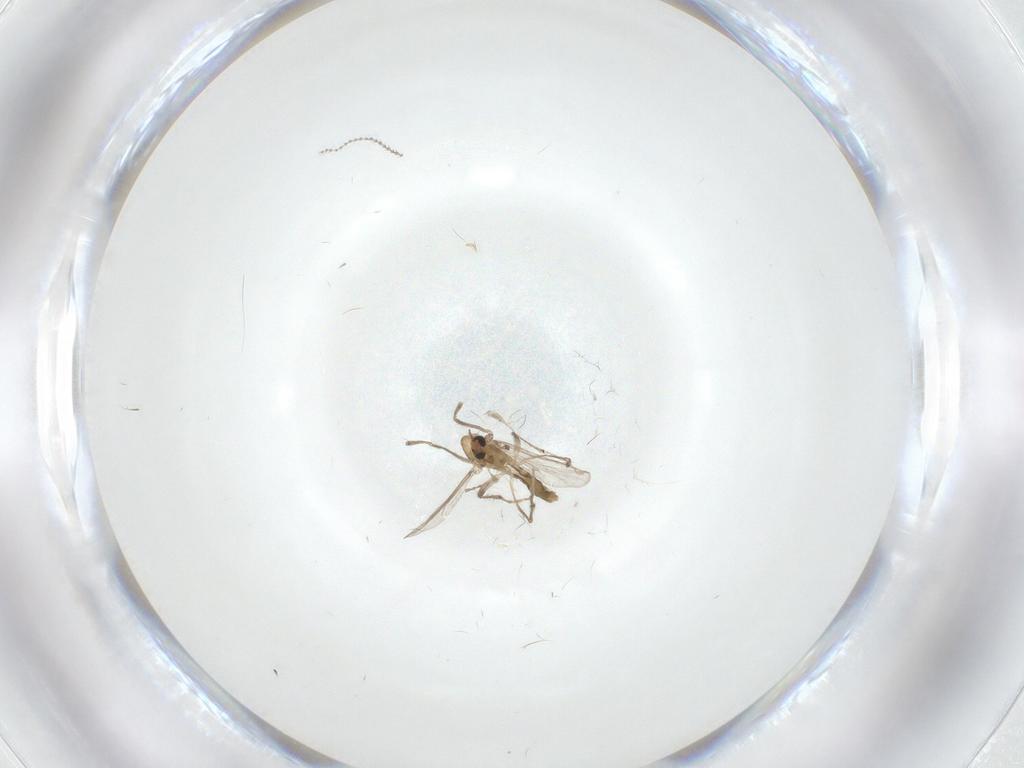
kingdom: Animalia
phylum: Arthropoda
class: Insecta
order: Diptera
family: Chironomidae
